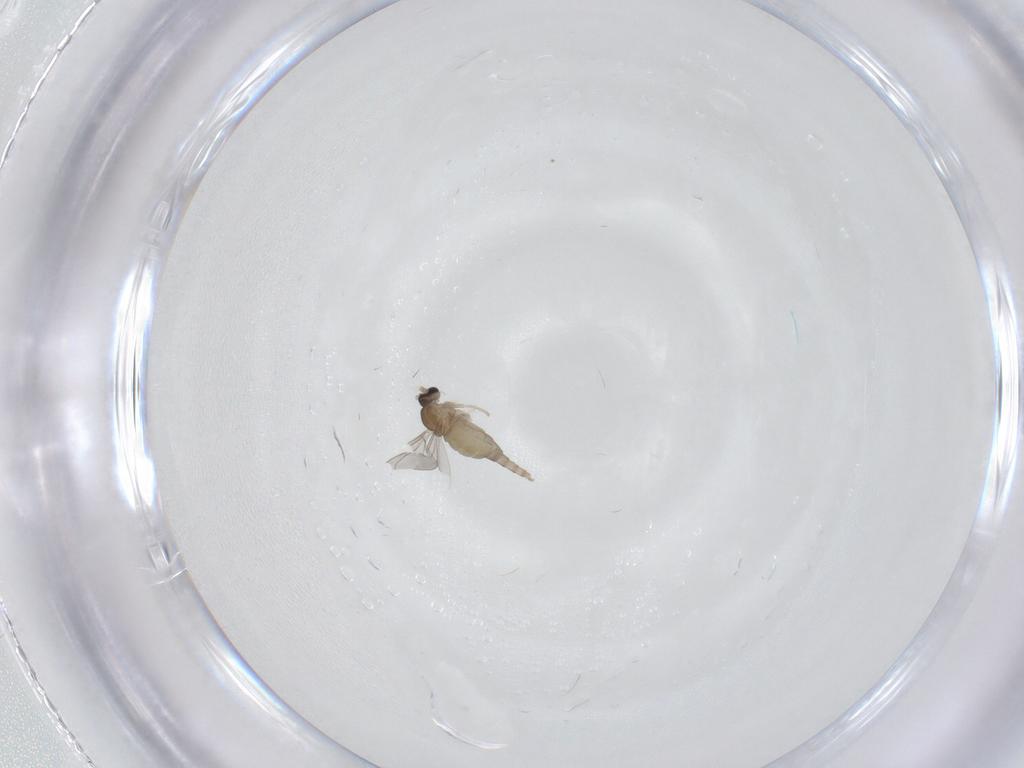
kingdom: Animalia
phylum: Arthropoda
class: Insecta
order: Diptera
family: Cecidomyiidae
